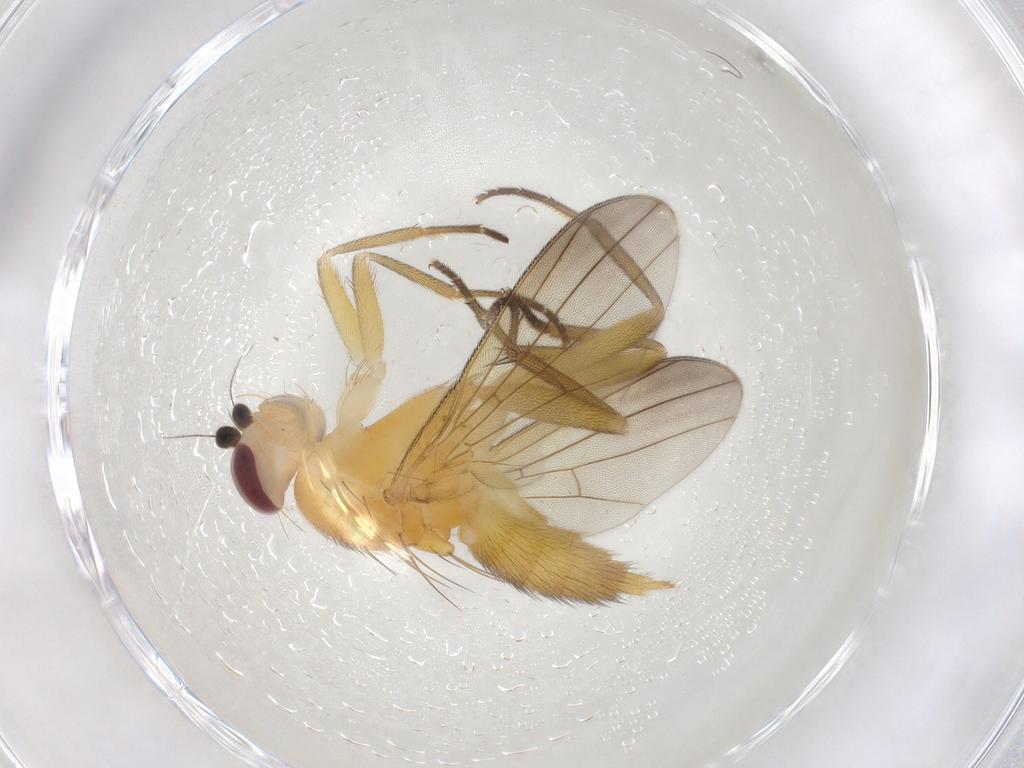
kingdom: Animalia
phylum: Arthropoda
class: Insecta
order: Diptera
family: Clusiidae
